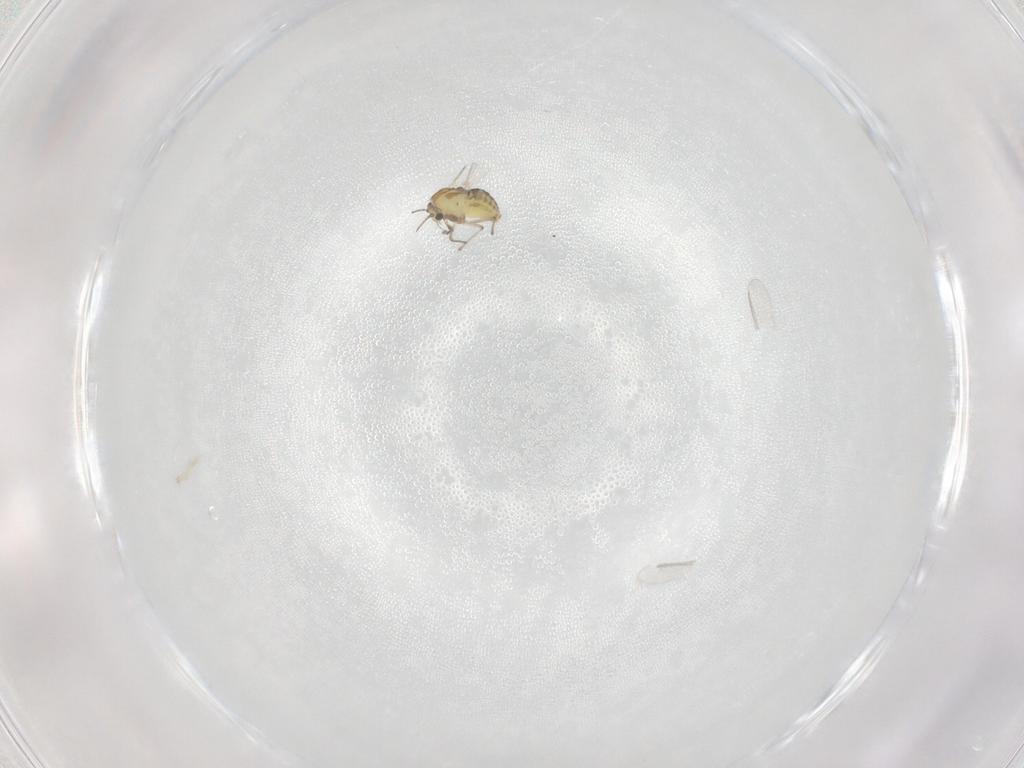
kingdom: Animalia
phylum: Arthropoda
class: Insecta
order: Diptera
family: Chironomidae
